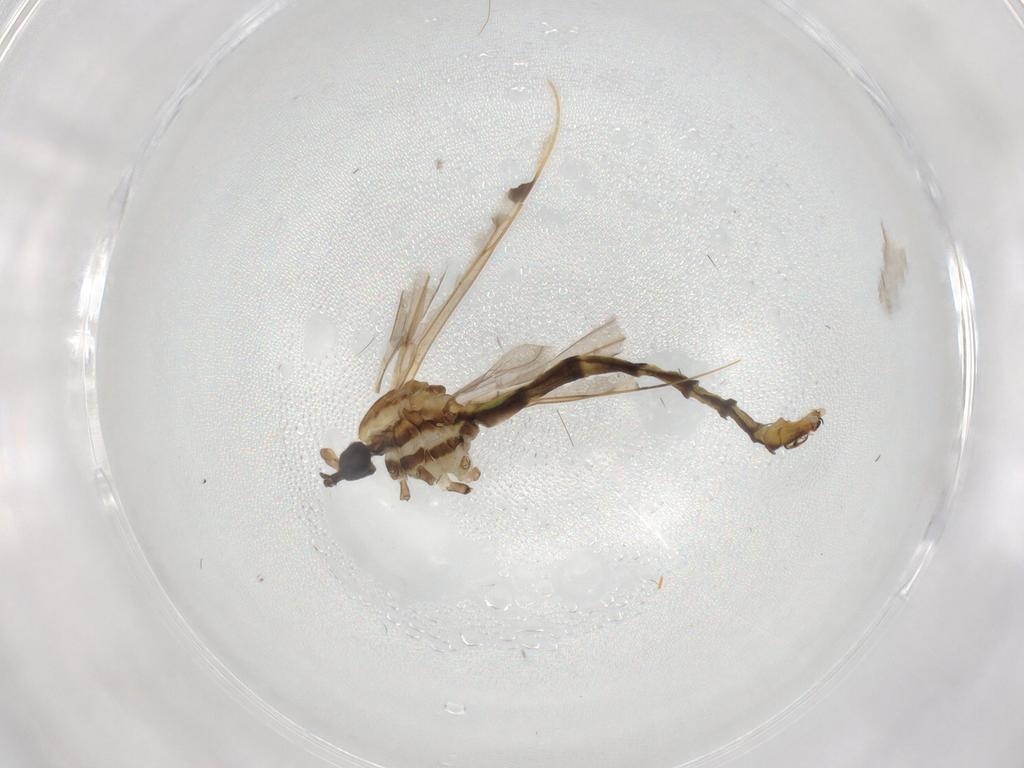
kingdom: Animalia
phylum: Arthropoda
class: Insecta
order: Diptera
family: Limoniidae
